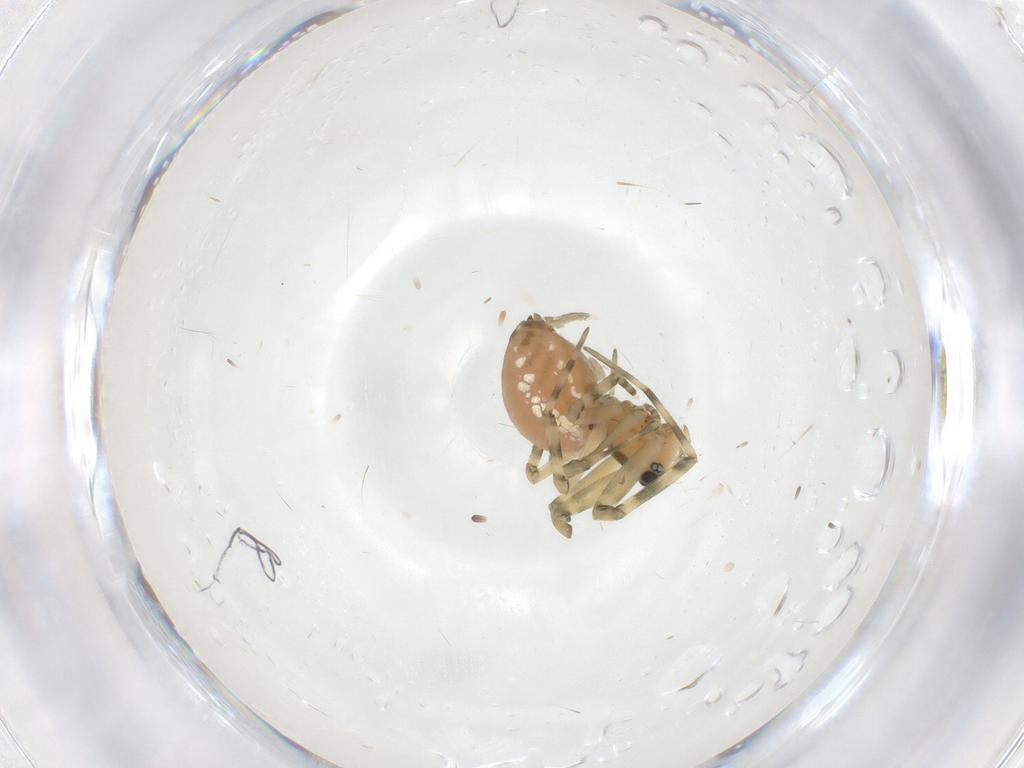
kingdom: Animalia
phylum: Arthropoda
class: Arachnida
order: Araneae
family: Linyphiidae
